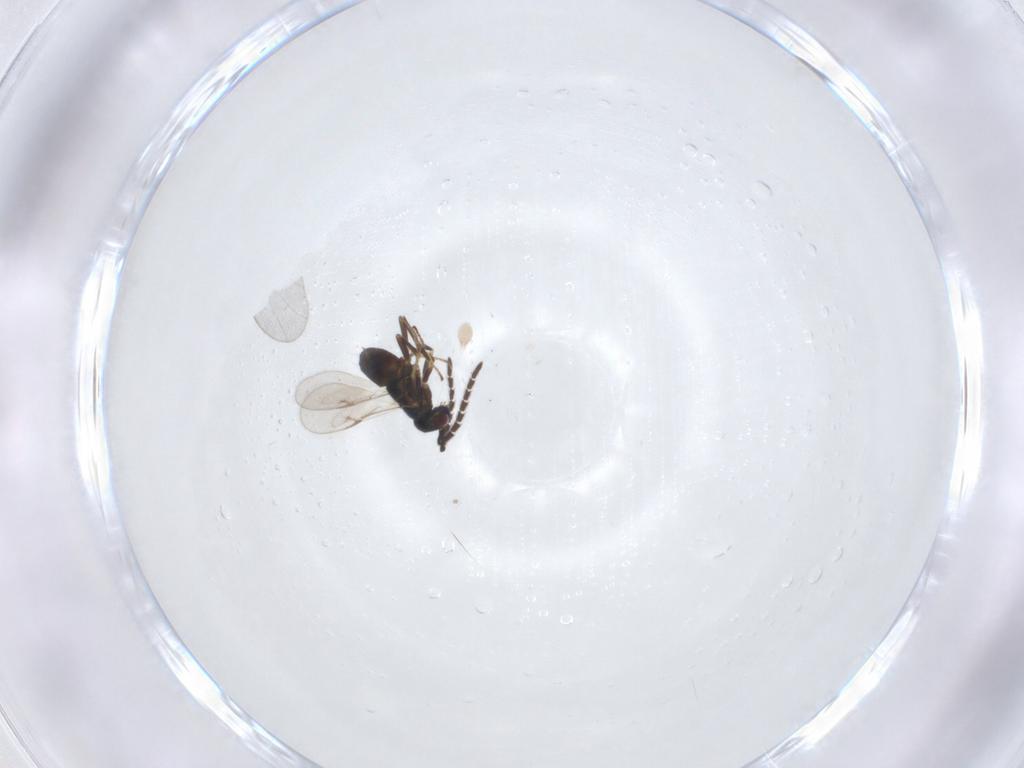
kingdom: Animalia
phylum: Arthropoda
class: Insecta
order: Hymenoptera
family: Encyrtidae
